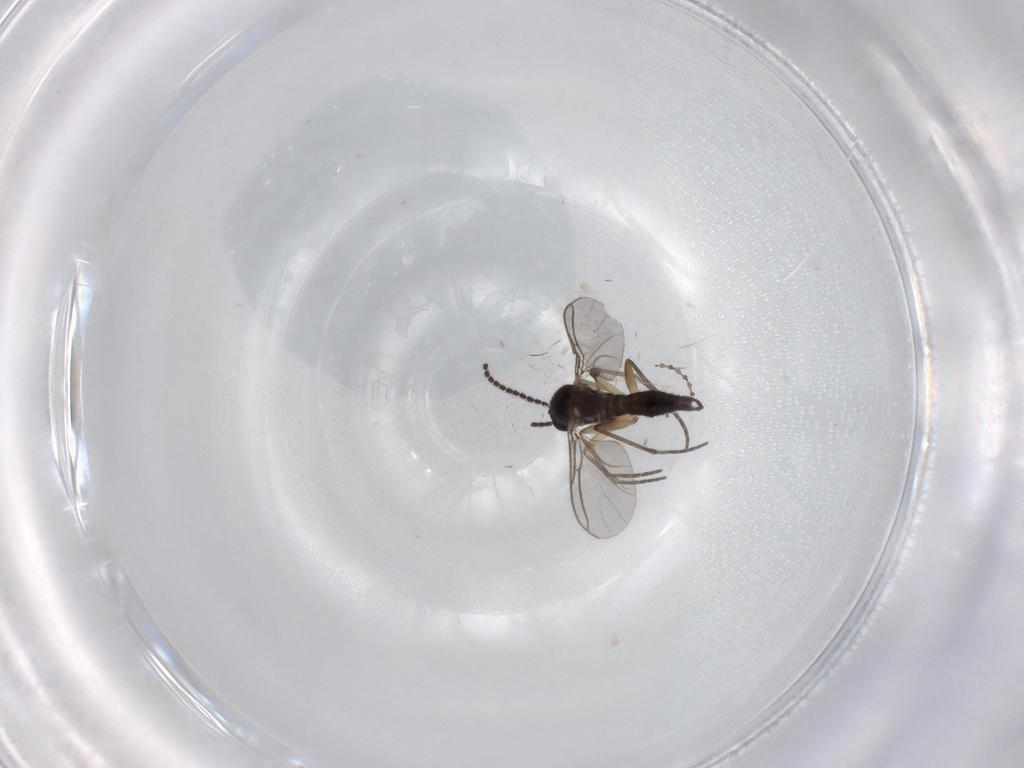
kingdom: Animalia
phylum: Arthropoda
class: Insecta
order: Diptera
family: Sciaridae
